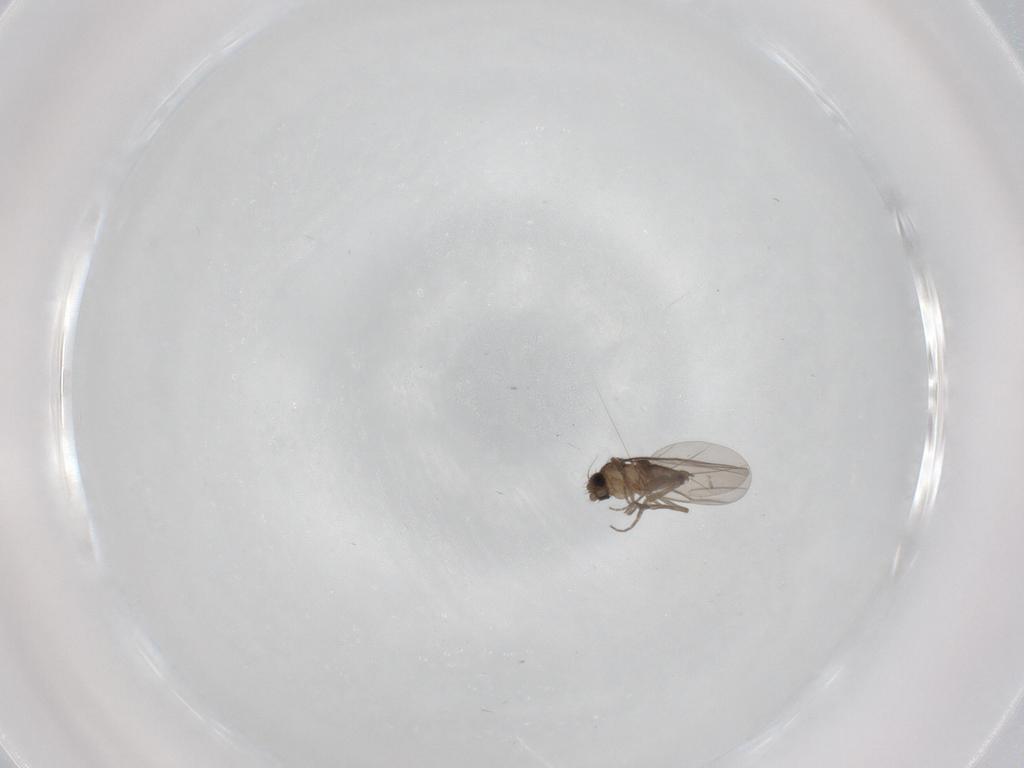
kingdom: Animalia
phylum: Arthropoda
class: Insecta
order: Diptera
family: Phoridae
